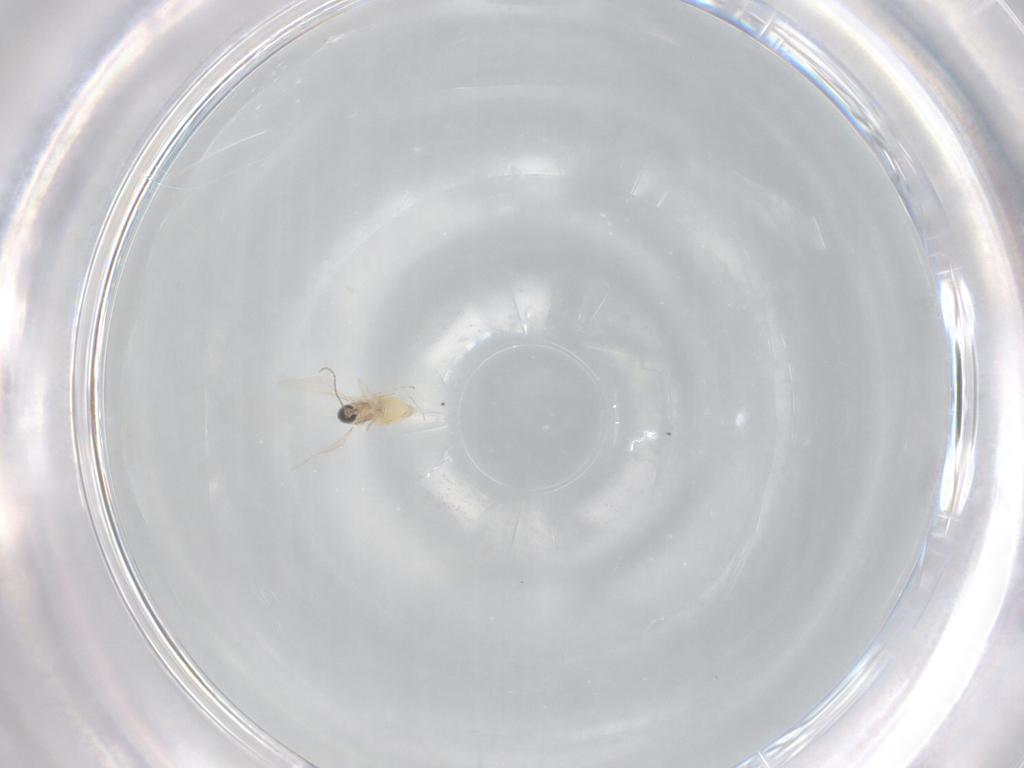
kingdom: Animalia
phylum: Arthropoda
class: Insecta
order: Diptera
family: Cecidomyiidae
